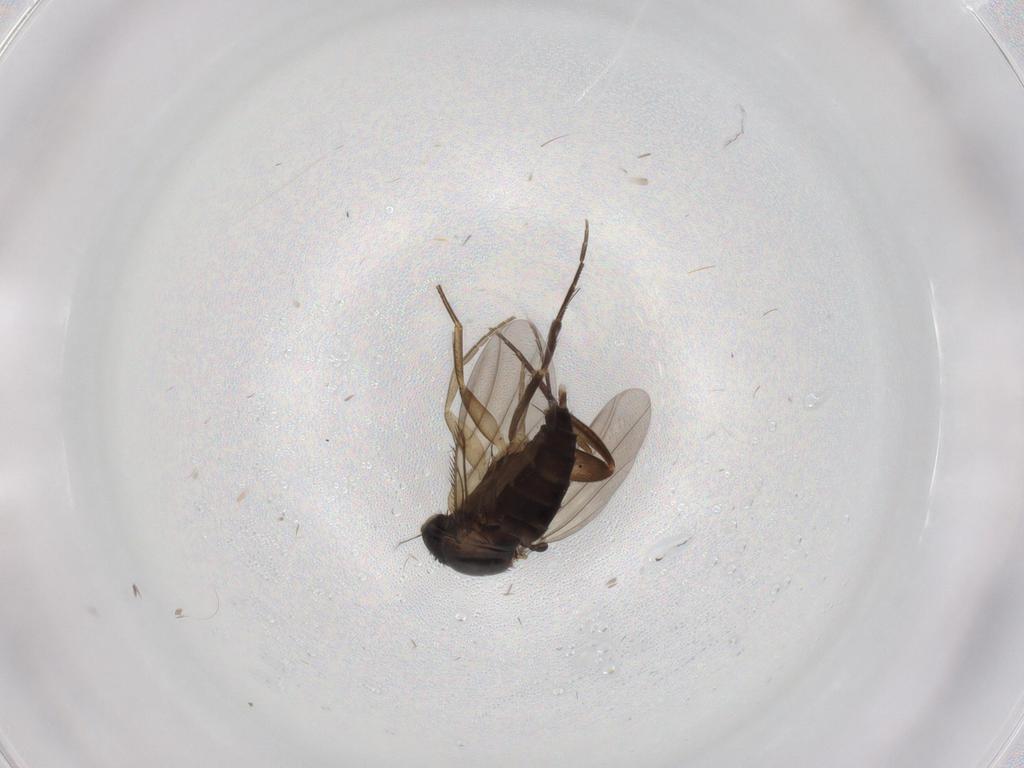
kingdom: Animalia
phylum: Arthropoda
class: Insecta
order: Diptera
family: Phoridae
